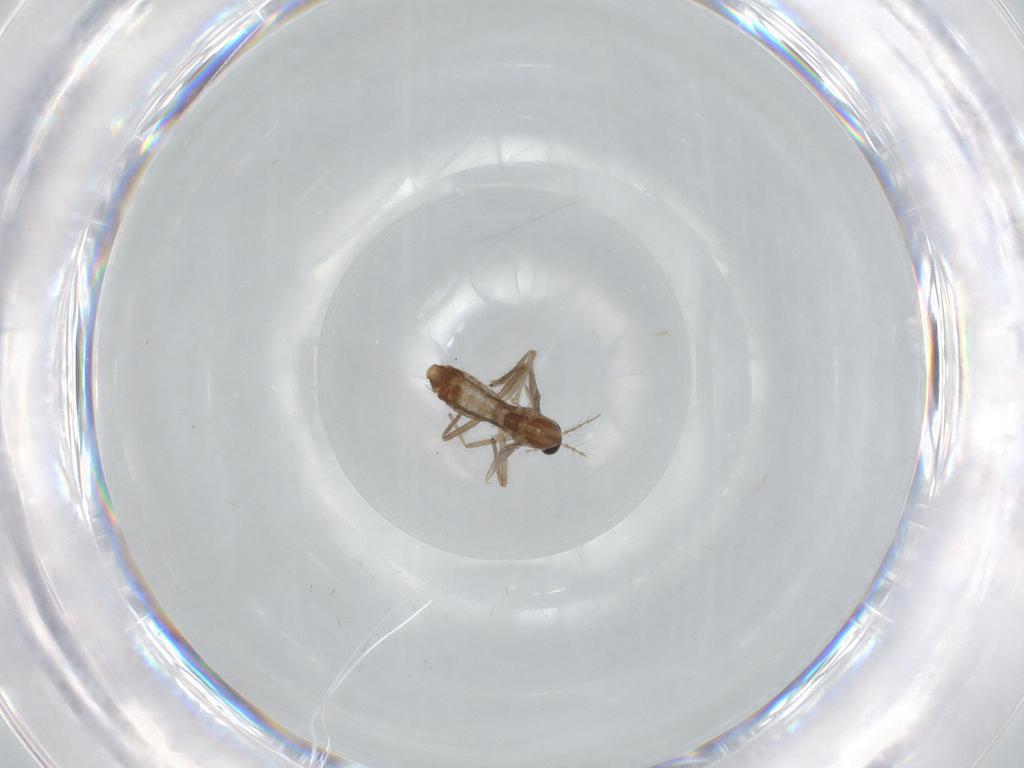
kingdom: Animalia
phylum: Arthropoda
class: Insecta
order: Diptera
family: Chironomidae
